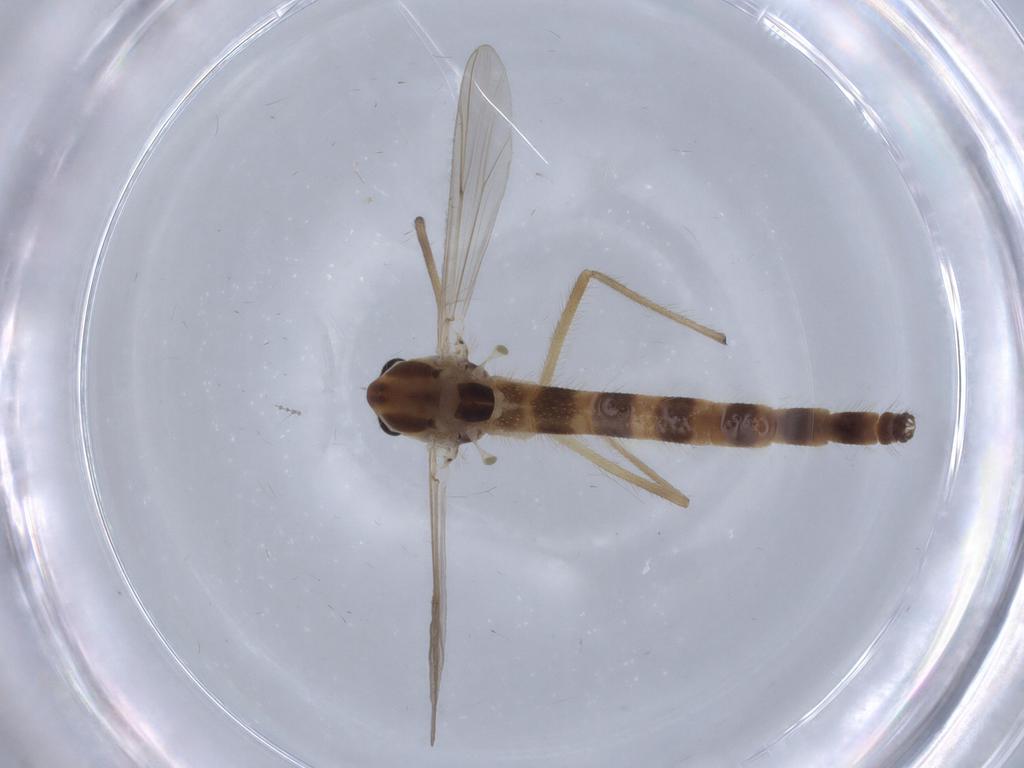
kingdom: Animalia
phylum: Arthropoda
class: Insecta
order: Diptera
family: Dolichopodidae
